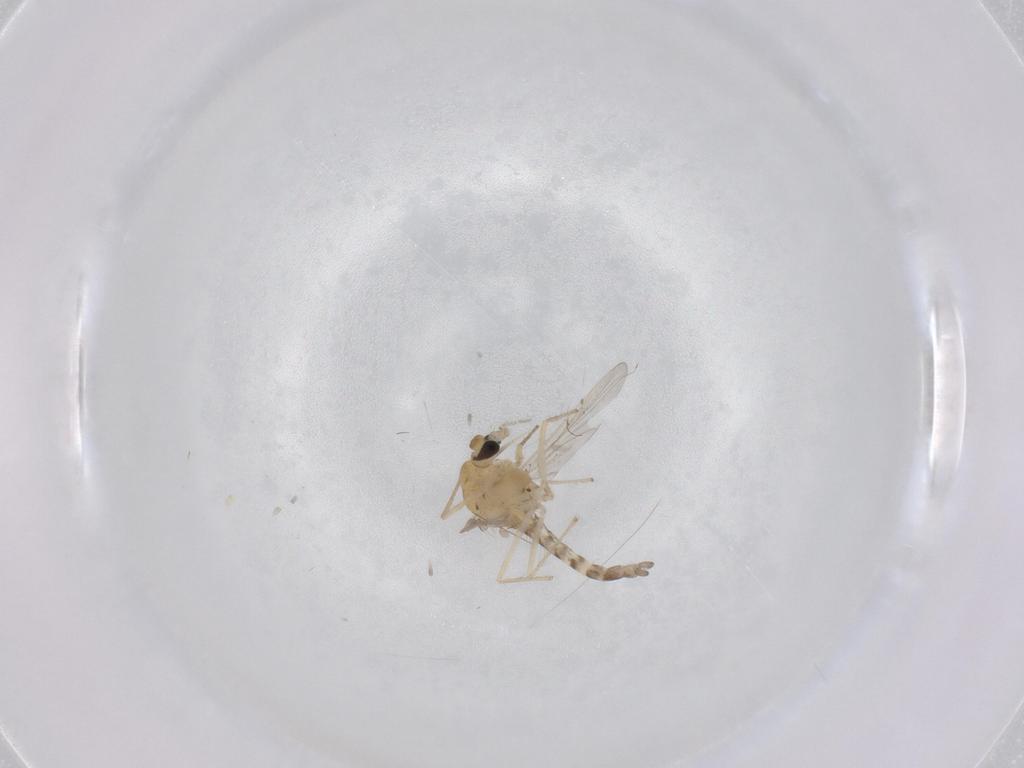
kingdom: Animalia
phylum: Arthropoda
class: Insecta
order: Diptera
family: Chironomidae
